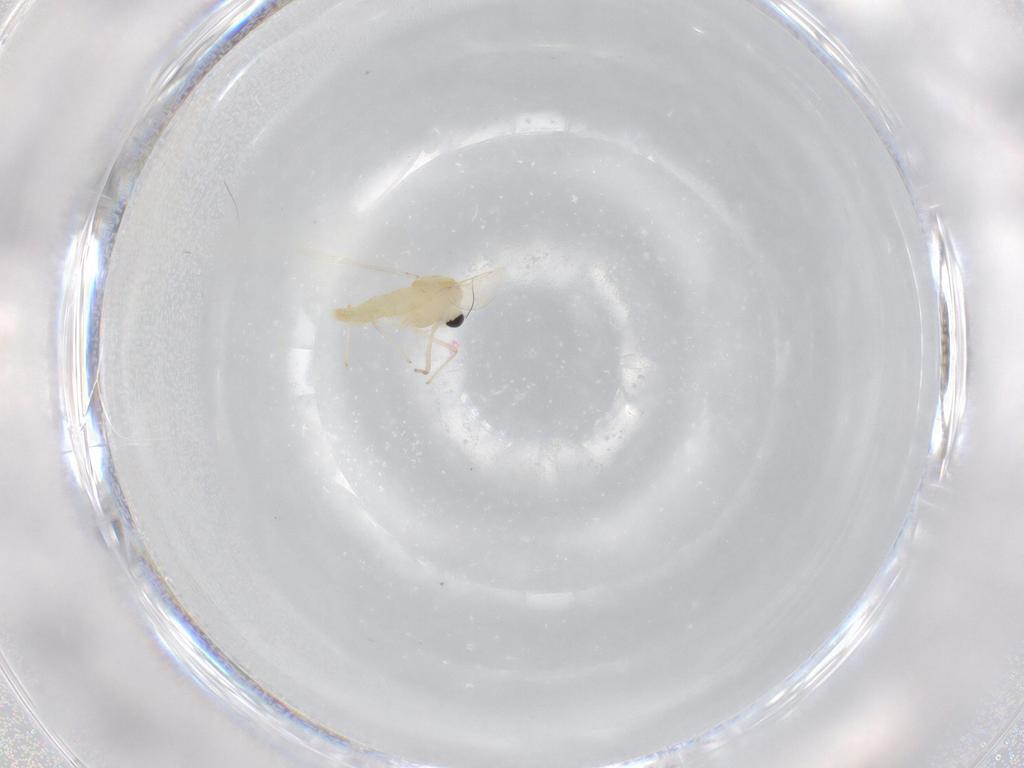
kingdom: Animalia
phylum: Arthropoda
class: Insecta
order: Diptera
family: Chironomidae
